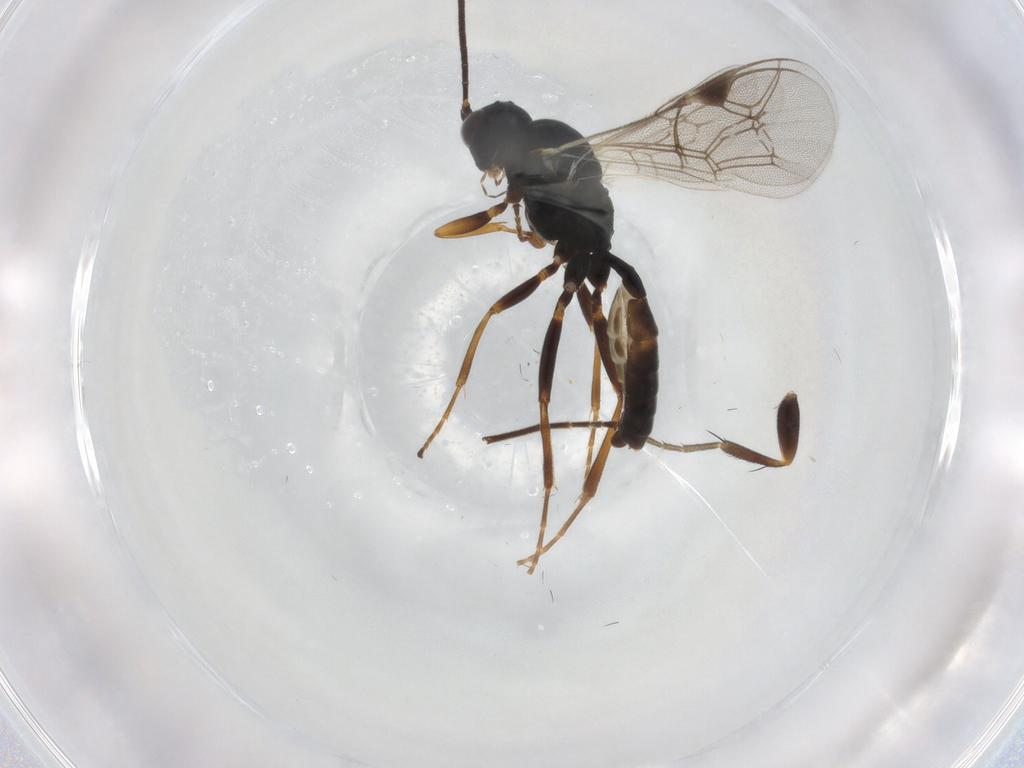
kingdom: Animalia
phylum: Arthropoda
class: Insecta
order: Hymenoptera
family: Ichneumonidae
